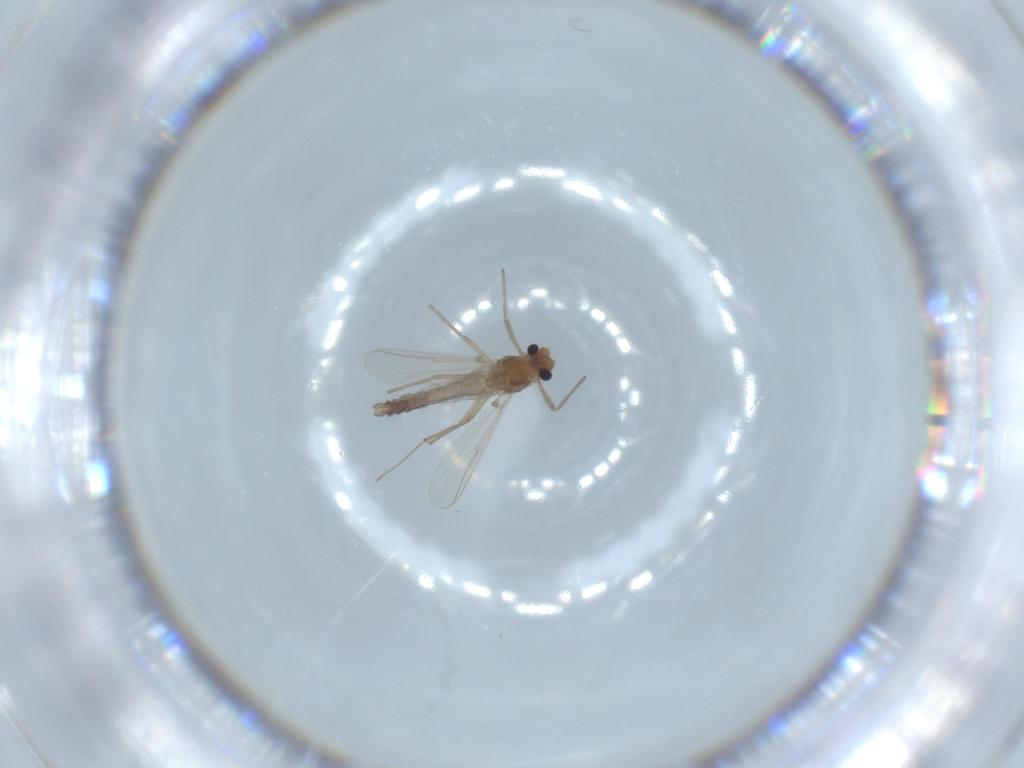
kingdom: Animalia
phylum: Arthropoda
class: Insecta
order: Diptera
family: Chironomidae
